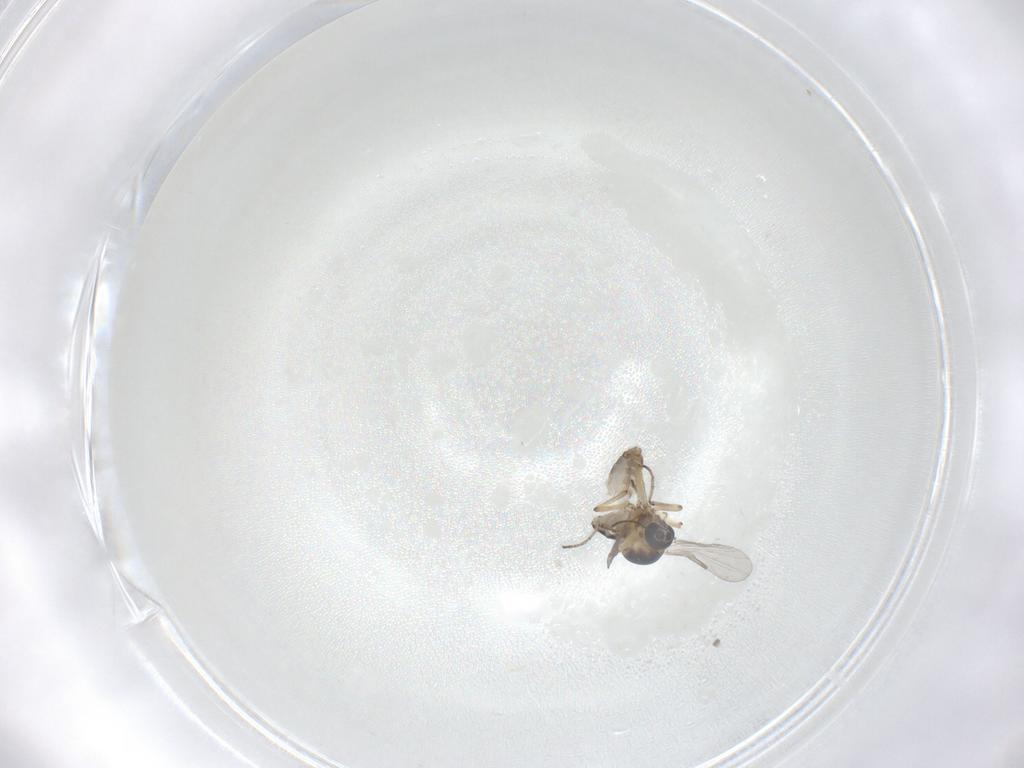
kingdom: Animalia
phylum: Arthropoda
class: Insecta
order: Diptera
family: Ceratopogonidae
